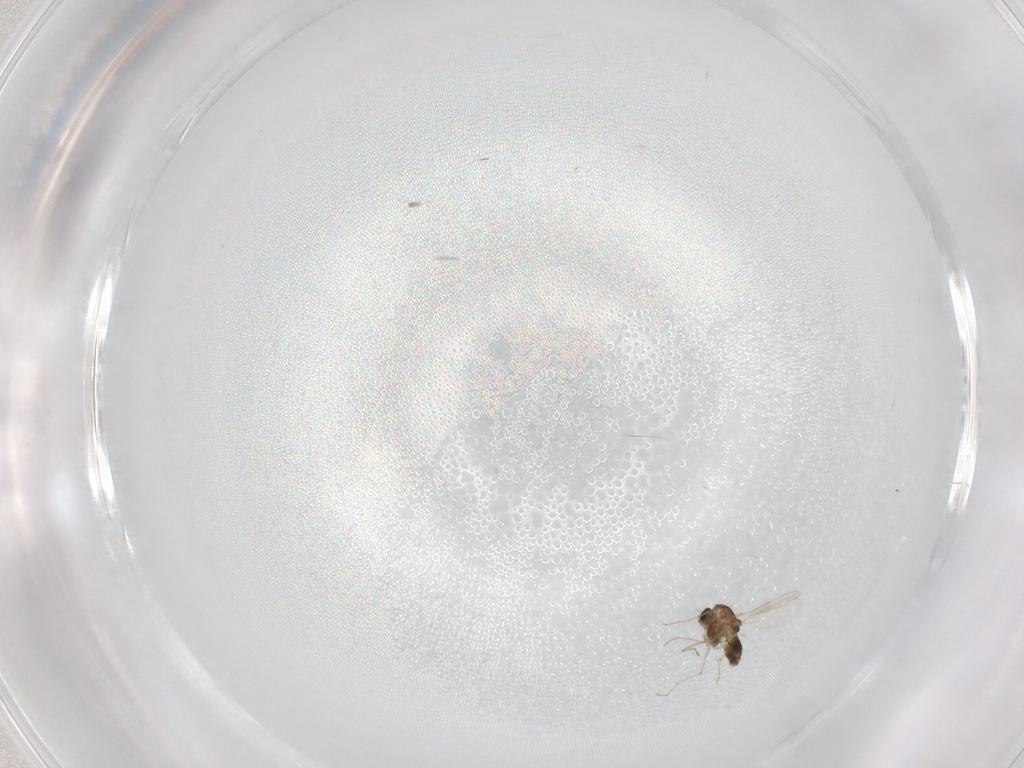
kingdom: Animalia
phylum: Arthropoda
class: Insecta
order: Diptera
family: Chironomidae
